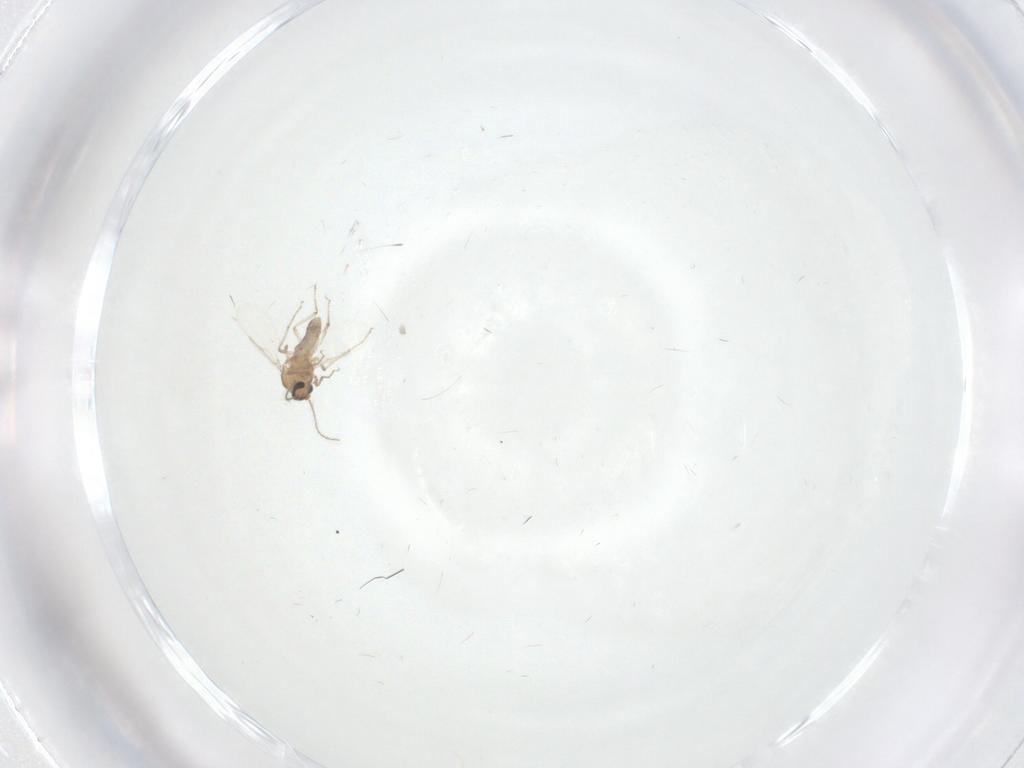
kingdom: Animalia
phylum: Arthropoda
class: Insecta
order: Diptera
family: Ceratopogonidae
